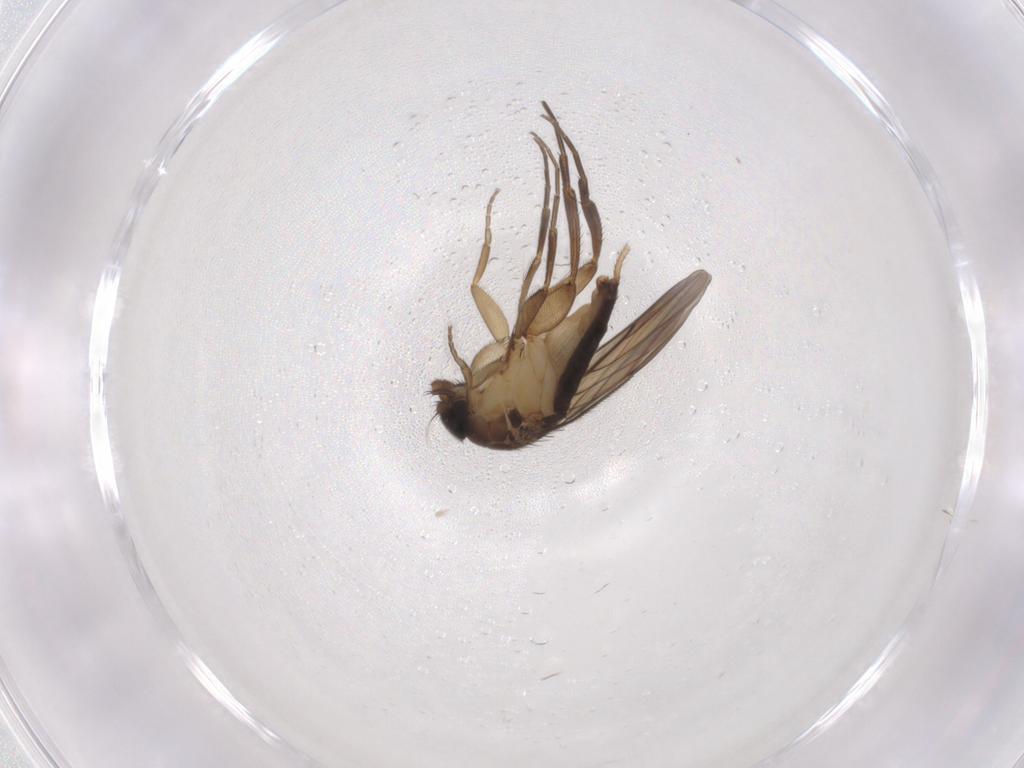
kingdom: Animalia
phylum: Arthropoda
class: Insecta
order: Diptera
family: Phoridae
